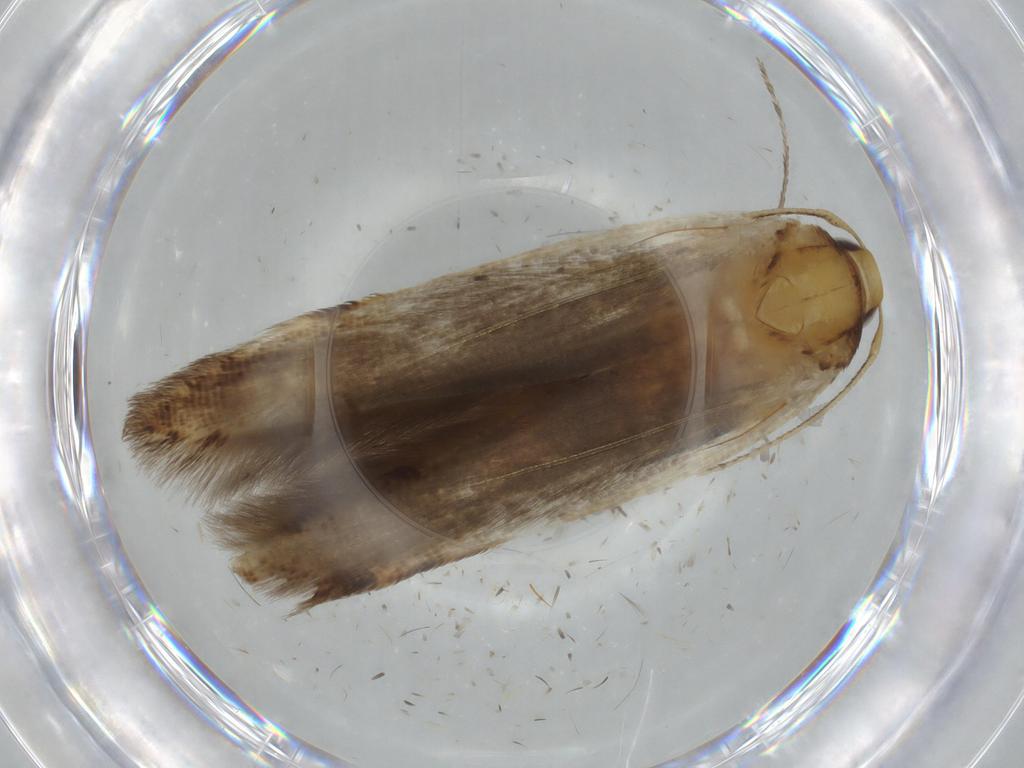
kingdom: Animalia
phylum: Arthropoda
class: Insecta
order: Lepidoptera
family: Cosmopterigidae
